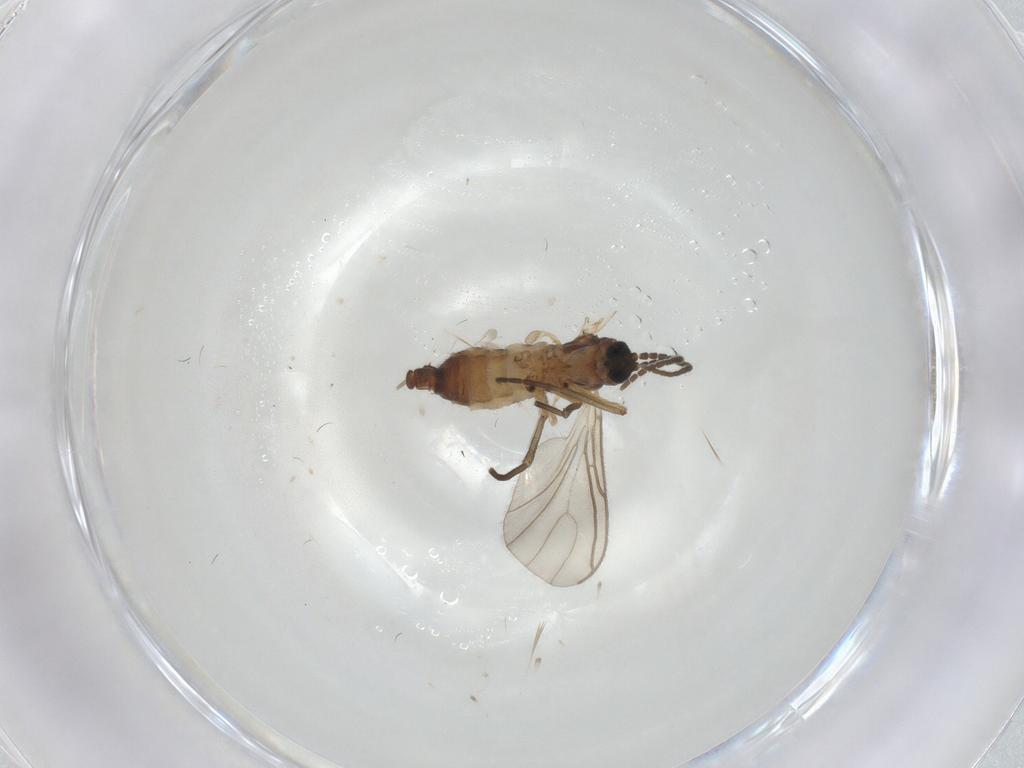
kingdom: Animalia
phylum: Arthropoda
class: Insecta
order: Diptera
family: Sciaridae
